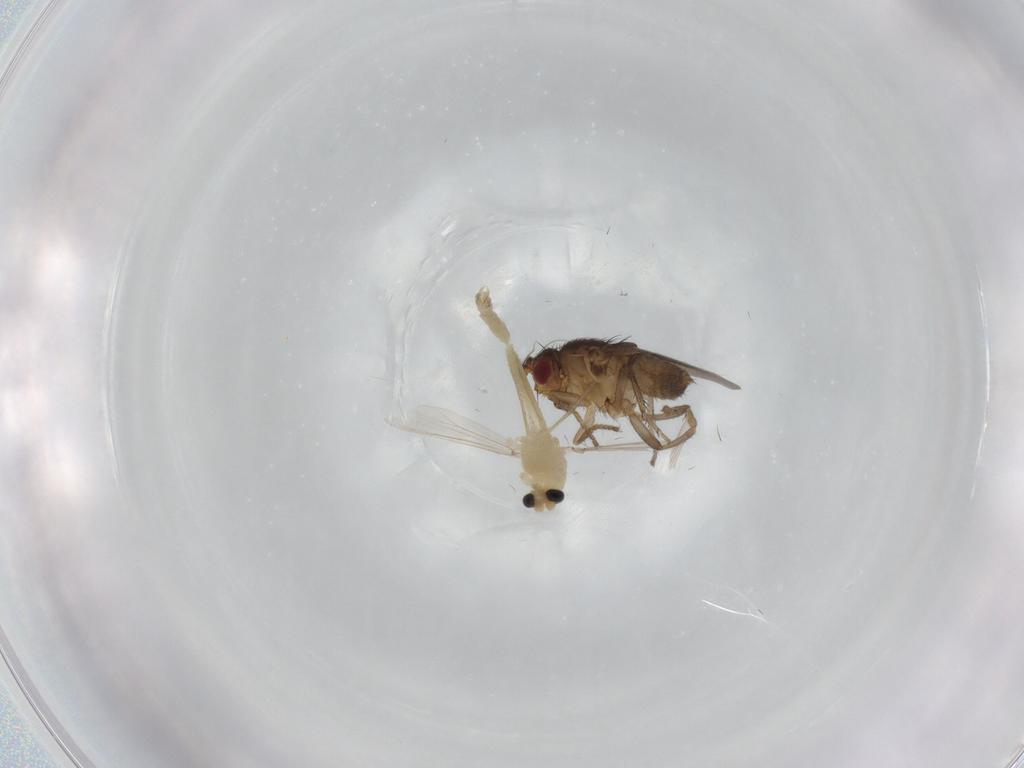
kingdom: Animalia
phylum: Arthropoda
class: Insecta
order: Diptera
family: Chironomidae
